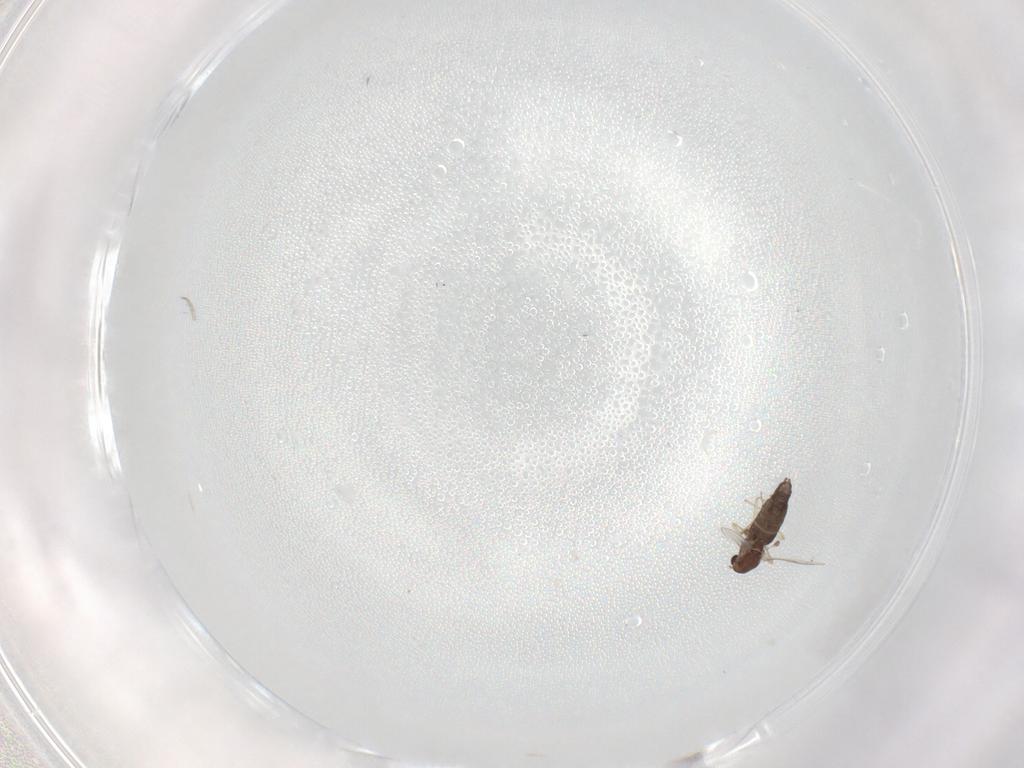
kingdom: Animalia
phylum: Arthropoda
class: Insecta
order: Diptera
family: Chironomidae
